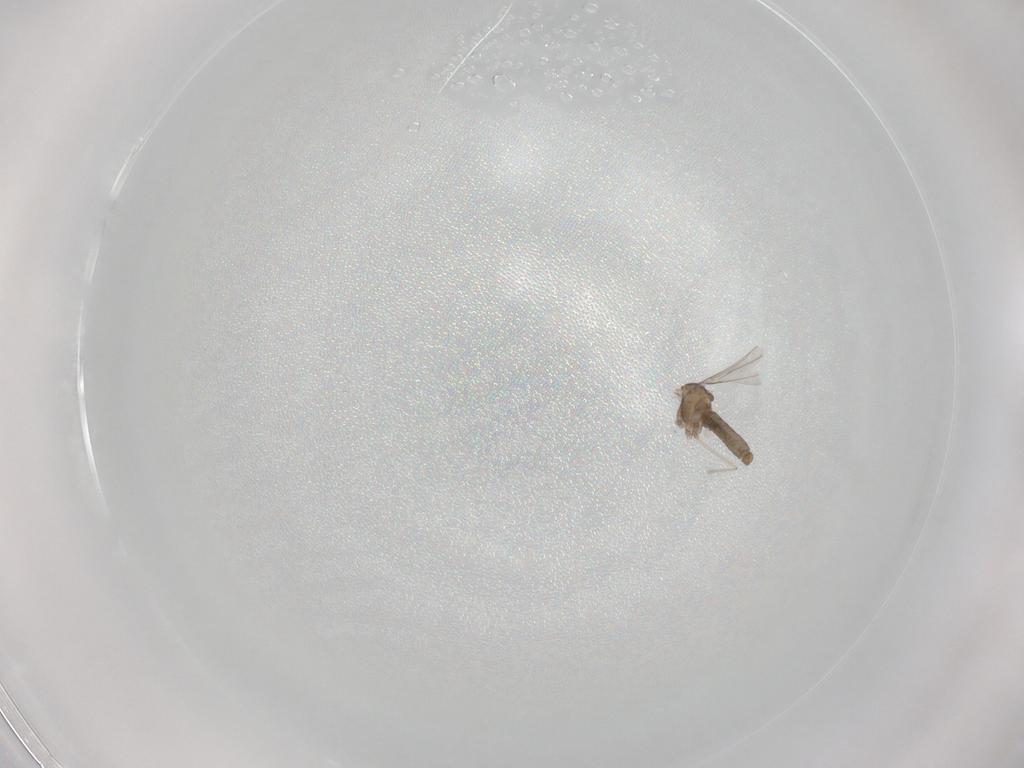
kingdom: Animalia
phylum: Arthropoda
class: Insecta
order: Diptera
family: Cecidomyiidae
